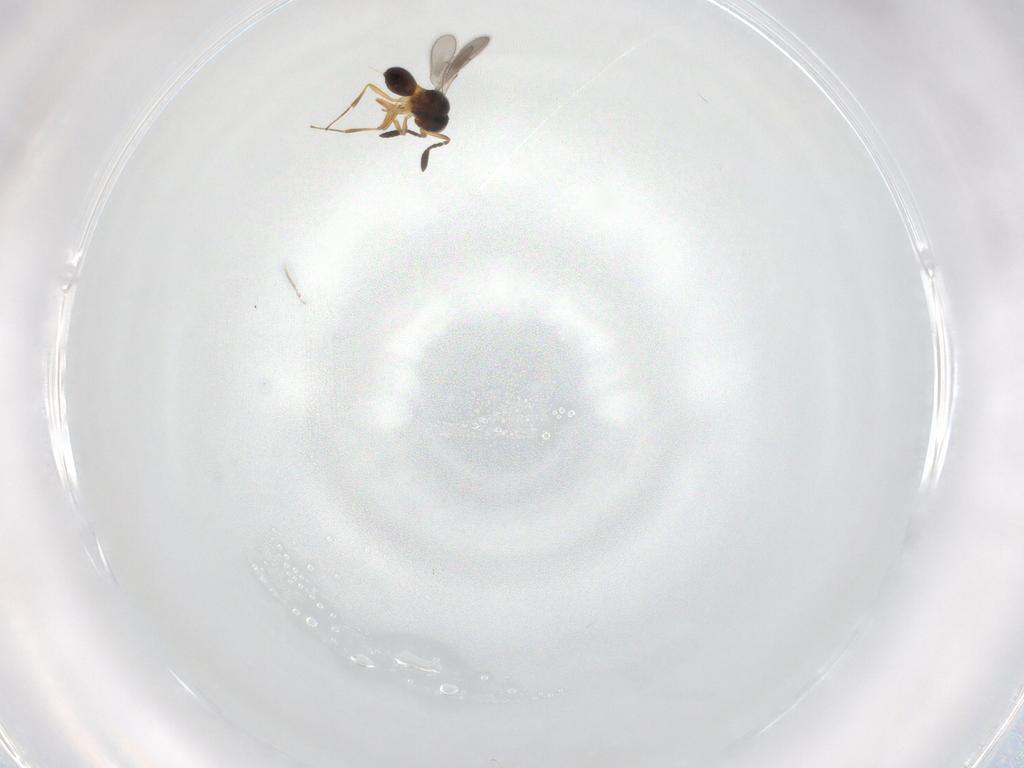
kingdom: Animalia
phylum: Arthropoda
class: Insecta
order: Hymenoptera
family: Scelionidae
